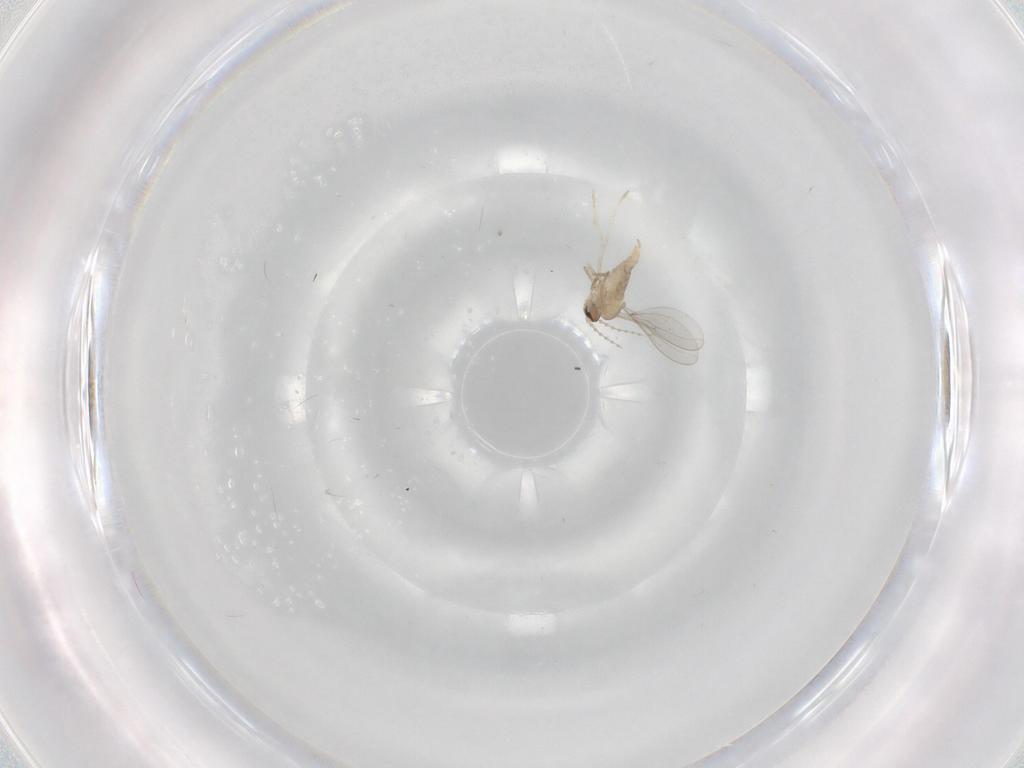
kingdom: Animalia
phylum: Arthropoda
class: Insecta
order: Diptera
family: Cecidomyiidae
